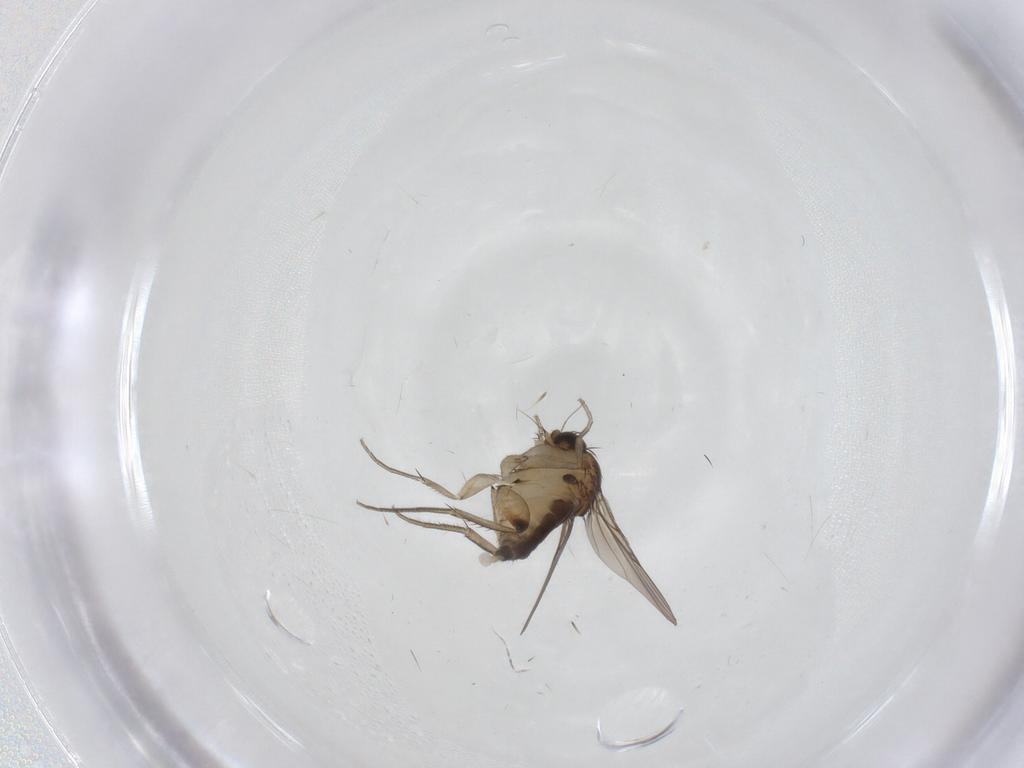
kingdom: Animalia
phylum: Arthropoda
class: Insecta
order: Diptera
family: Phoridae
